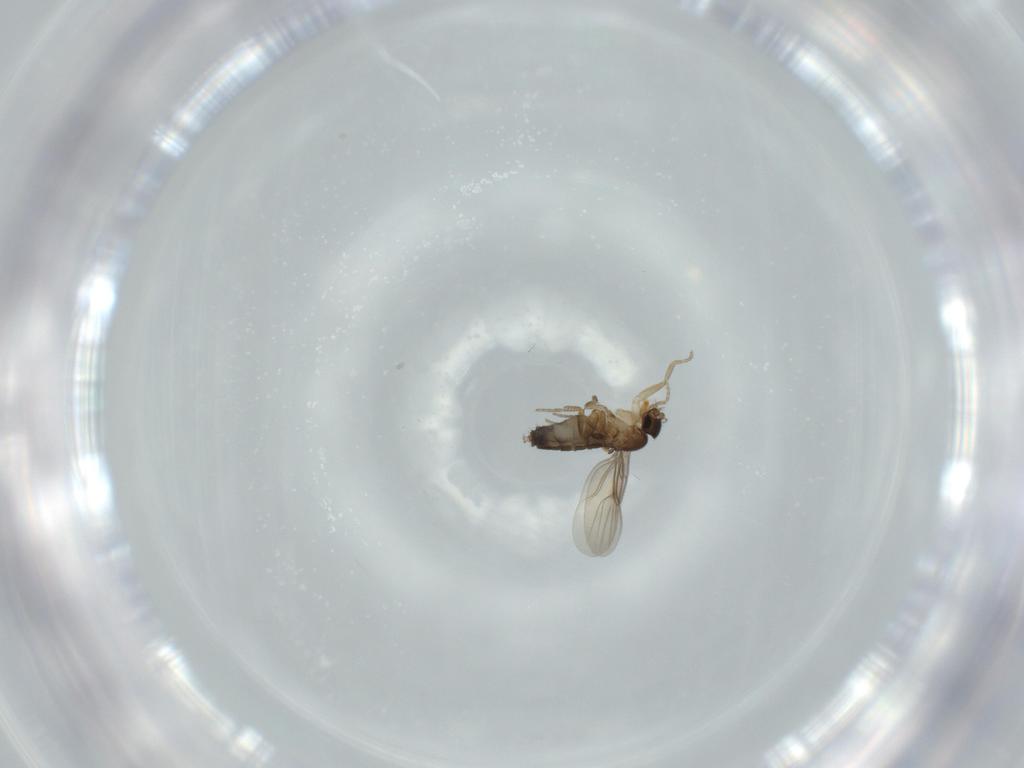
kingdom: Animalia
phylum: Arthropoda
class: Insecta
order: Diptera
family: Phoridae
